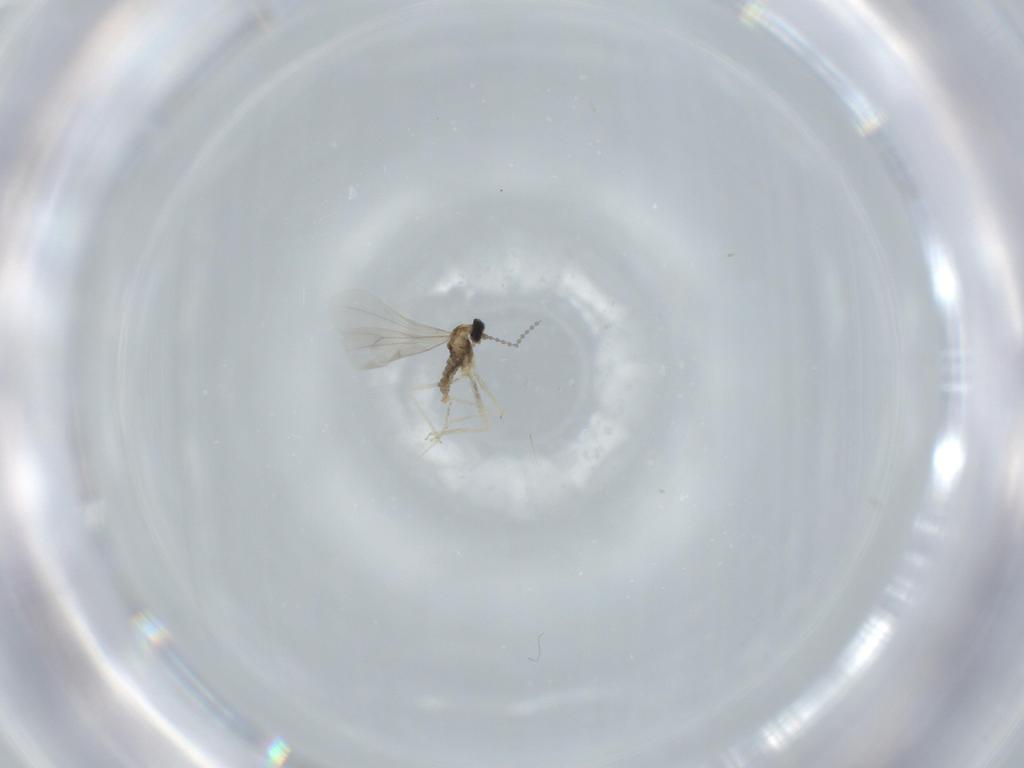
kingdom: Animalia
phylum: Arthropoda
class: Insecta
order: Diptera
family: Cecidomyiidae
